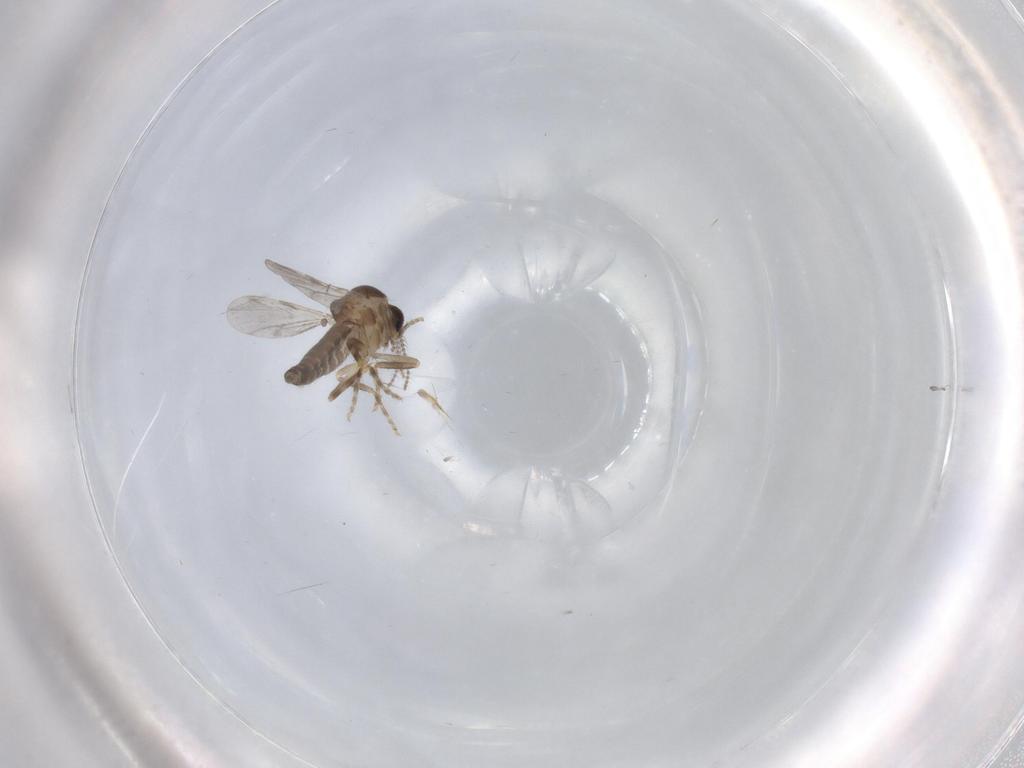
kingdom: Animalia
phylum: Arthropoda
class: Insecta
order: Diptera
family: Ceratopogonidae
